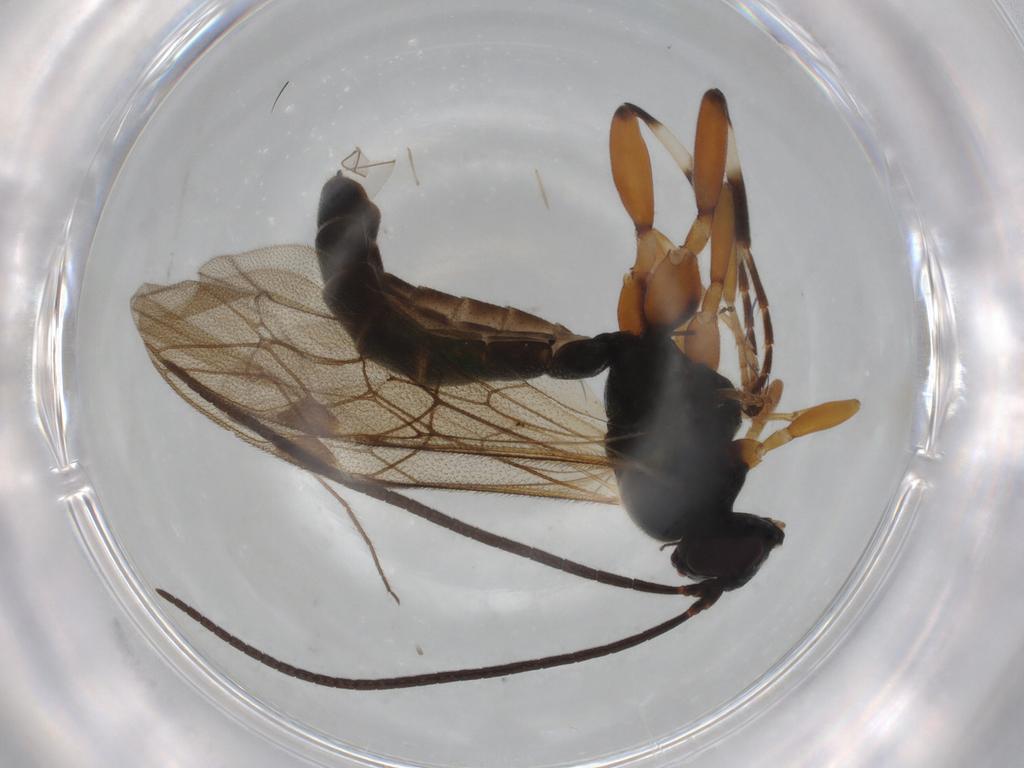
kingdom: Animalia
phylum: Arthropoda
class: Insecta
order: Hymenoptera
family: Ichneumonidae
